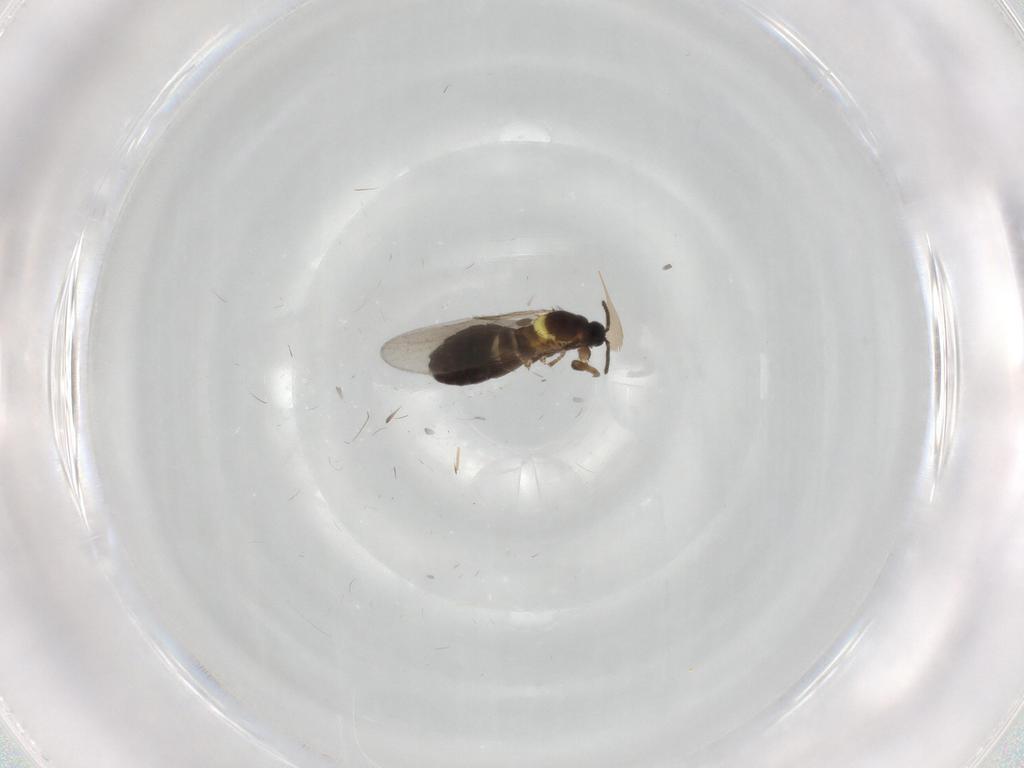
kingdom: Animalia
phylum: Arthropoda
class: Insecta
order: Diptera
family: Scatopsidae
